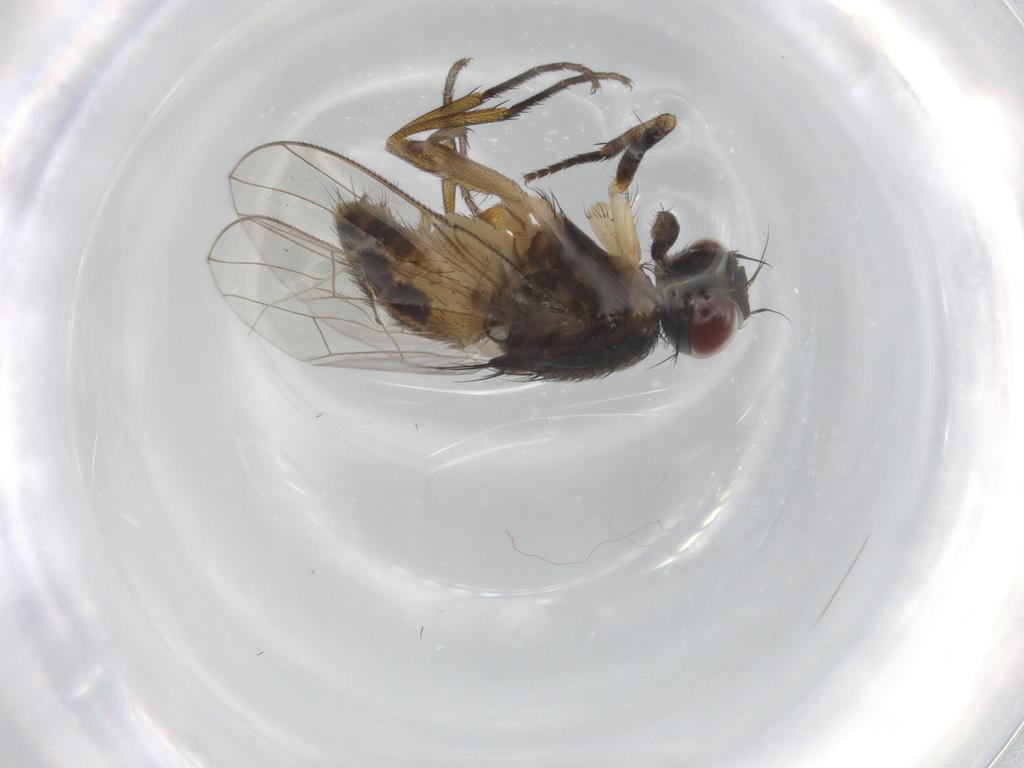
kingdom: Animalia
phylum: Arthropoda
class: Insecta
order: Diptera
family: Muscidae
